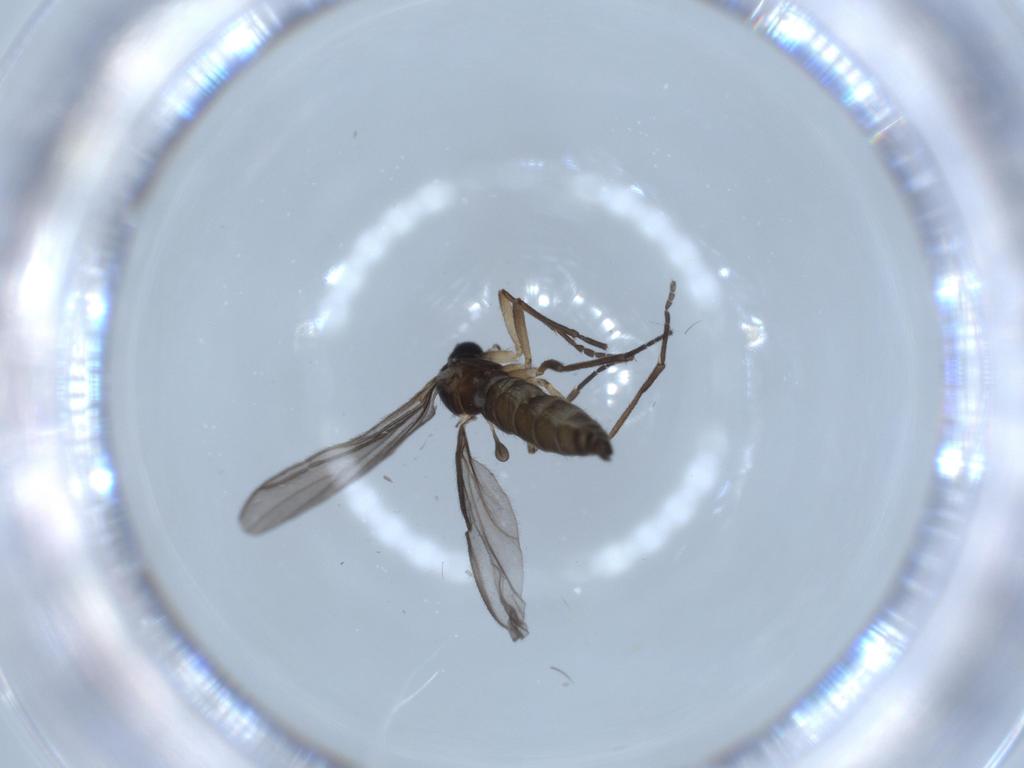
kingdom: Animalia
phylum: Arthropoda
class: Insecta
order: Diptera
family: Sciaridae
